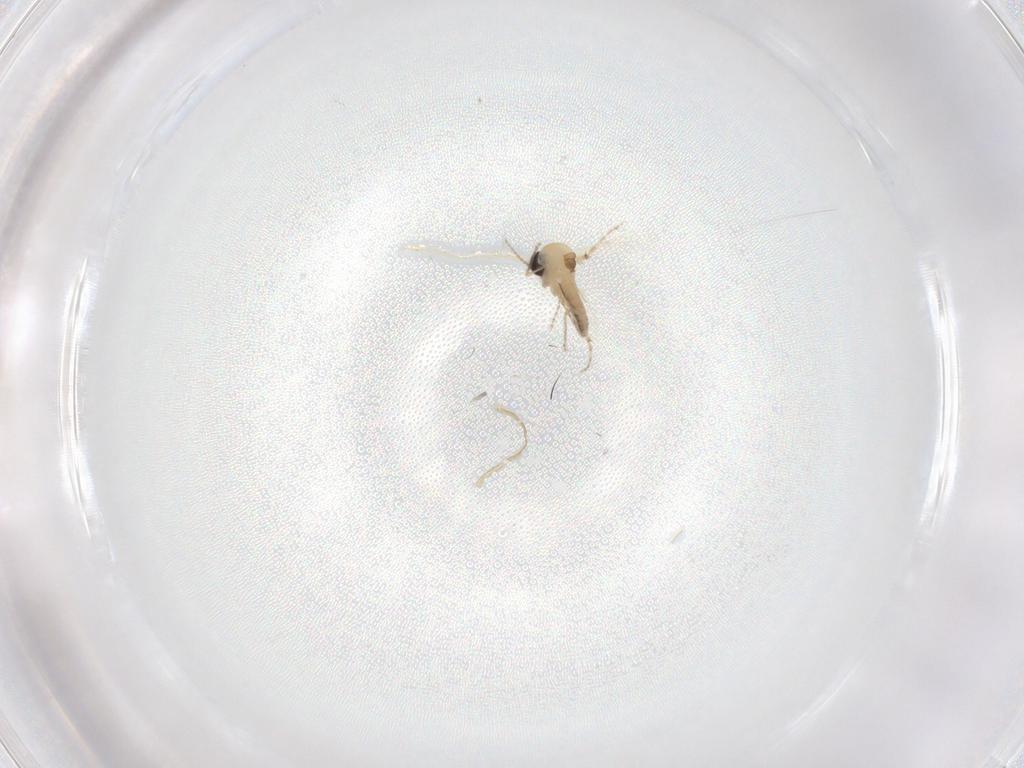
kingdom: Animalia
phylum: Arthropoda
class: Insecta
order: Diptera
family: Ceratopogonidae
